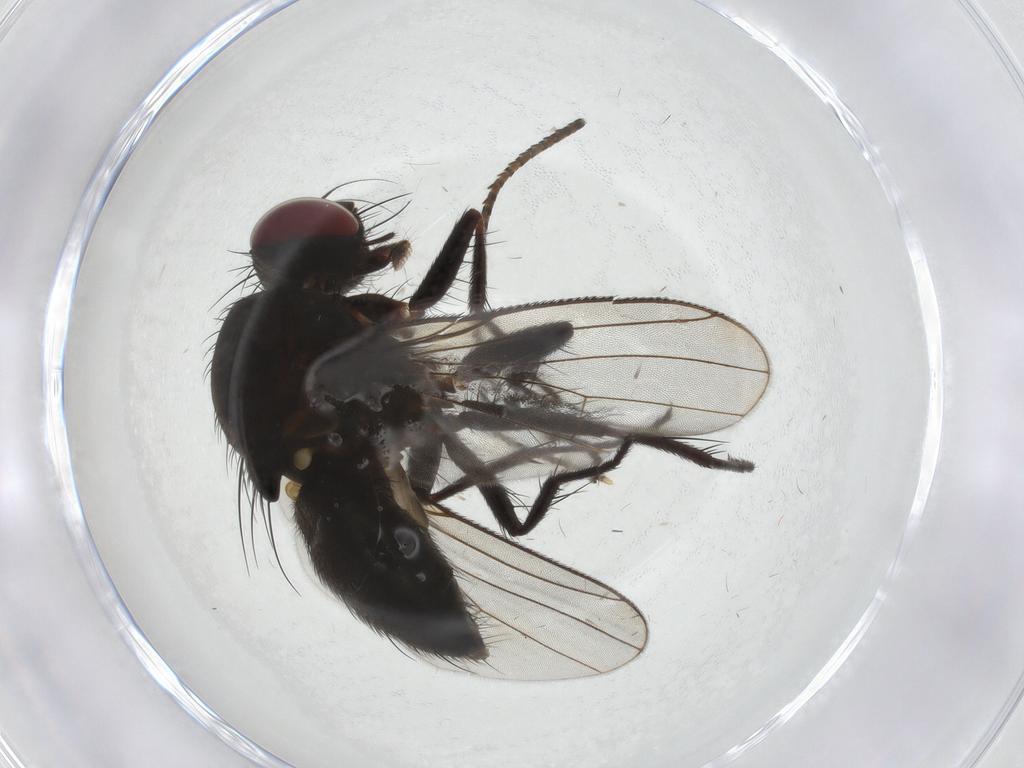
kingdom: Animalia
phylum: Arthropoda
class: Insecta
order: Diptera
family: Muscidae
